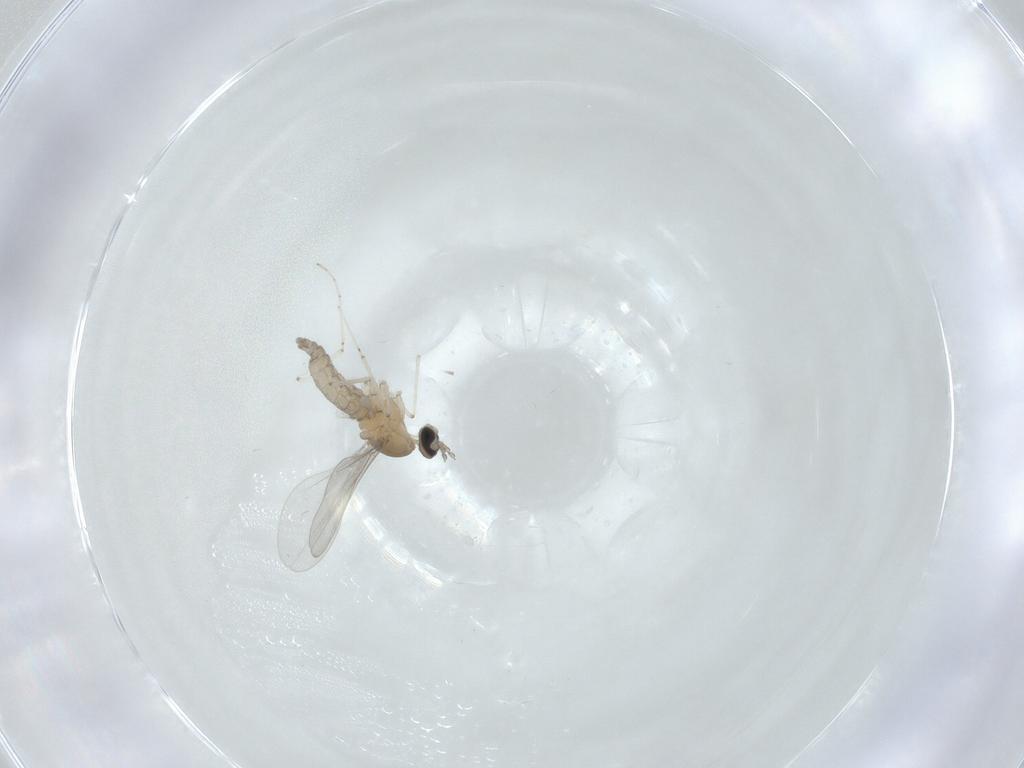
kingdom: Animalia
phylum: Arthropoda
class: Insecta
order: Diptera
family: Cecidomyiidae
